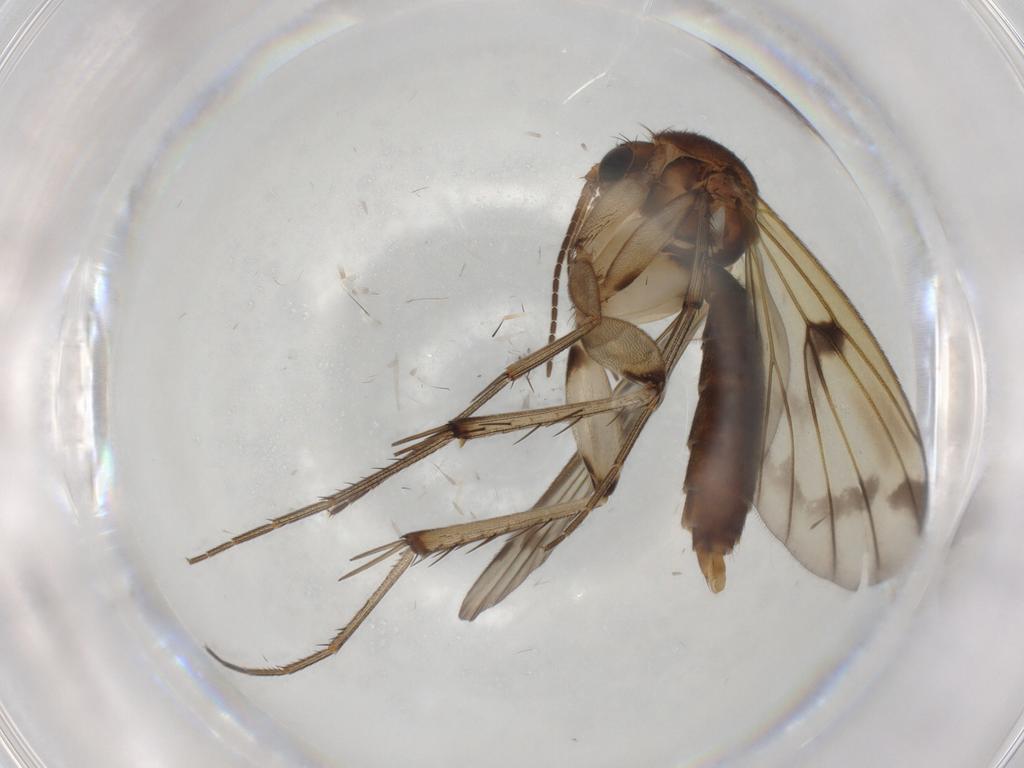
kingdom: Animalia
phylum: Arthropoda
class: Insecta
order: Diptera
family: Mycetophilidae
